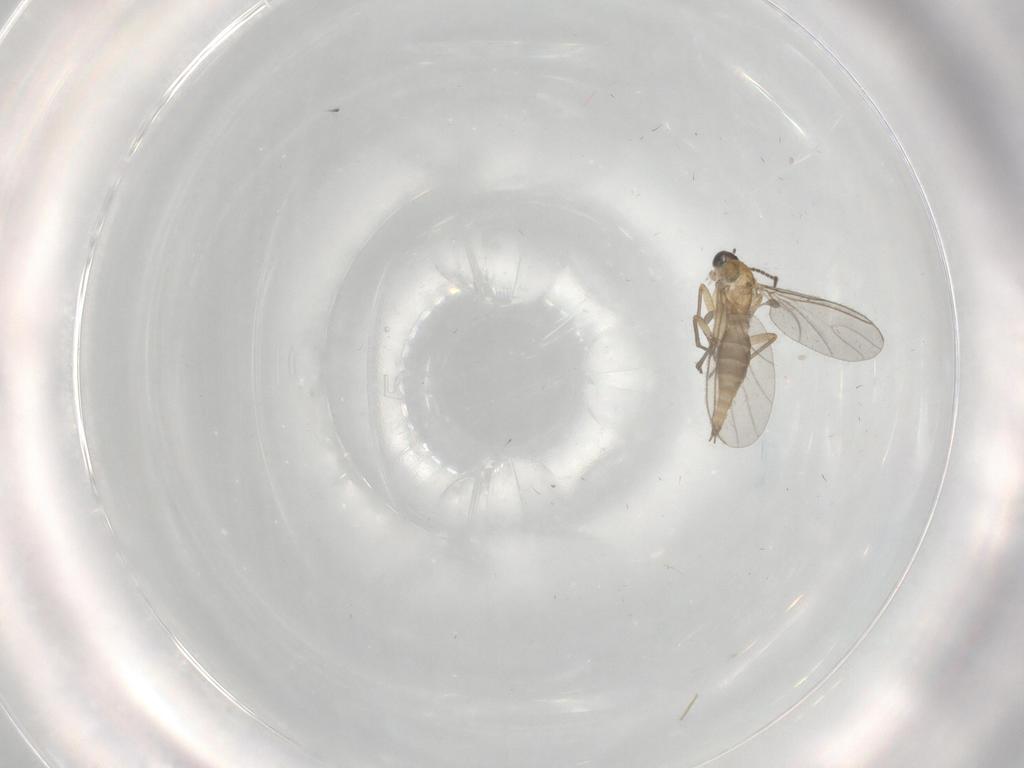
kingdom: Animalia
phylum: Arthropoda
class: Insecta
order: Diptera
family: Sciaridae
